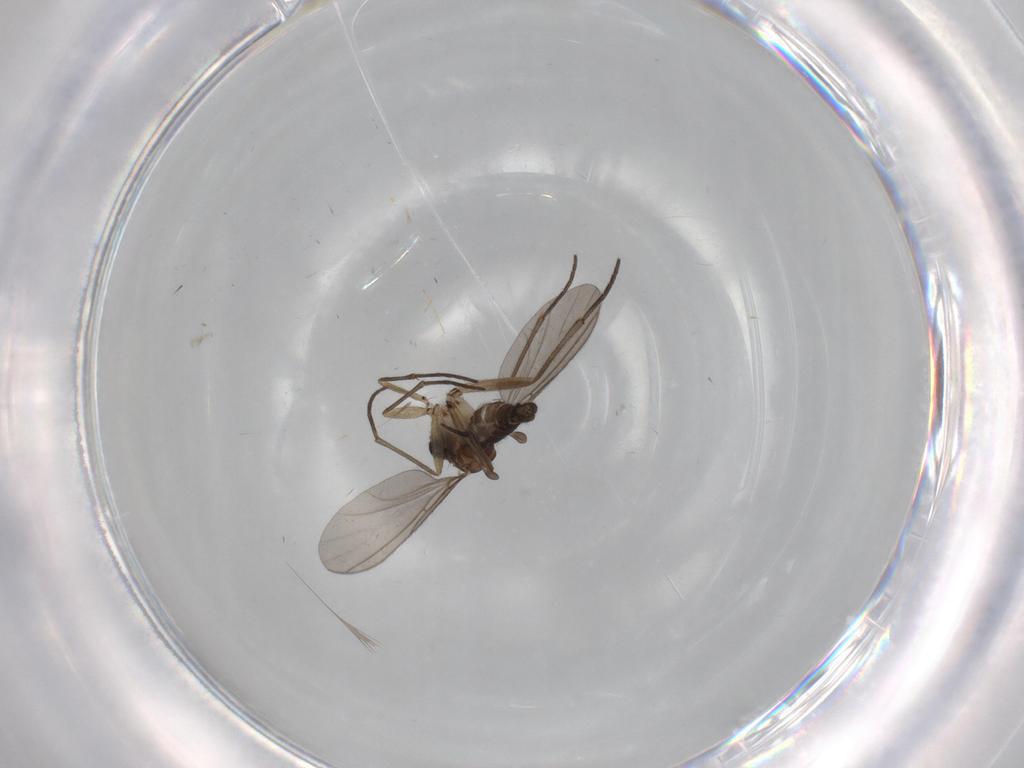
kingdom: Animalia
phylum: Arthropoda
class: Insecta
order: Diptera
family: Sciaridae
